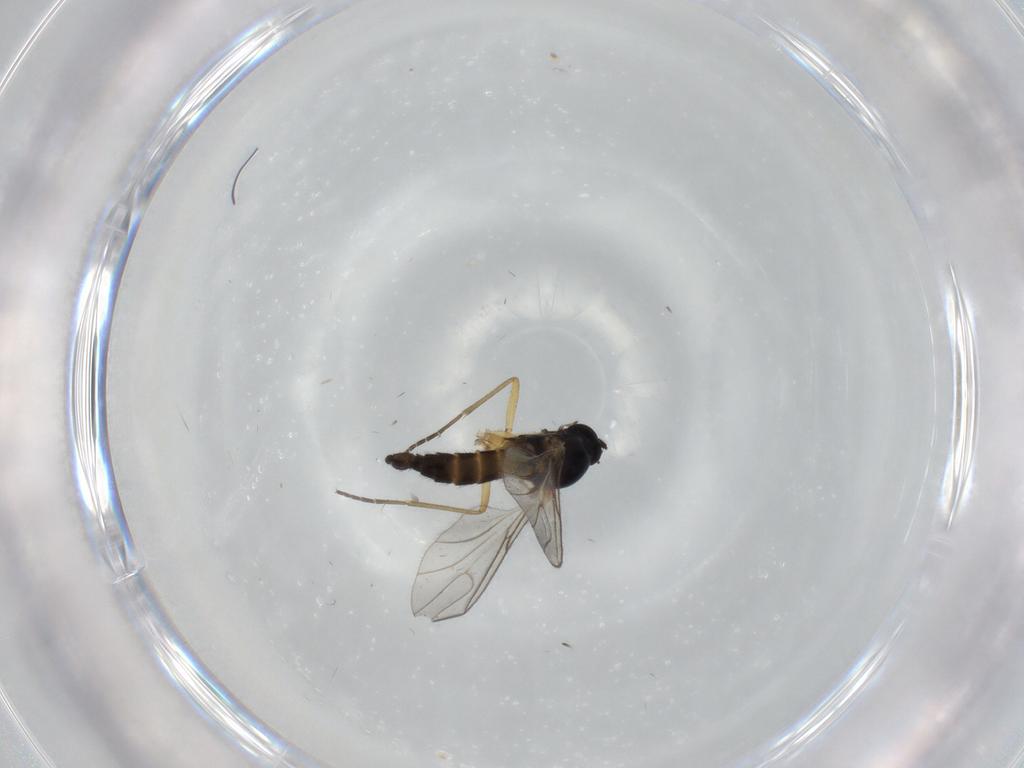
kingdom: Animalia
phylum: Arthropoda
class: Insecta
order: Diptera
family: Sciaridae
